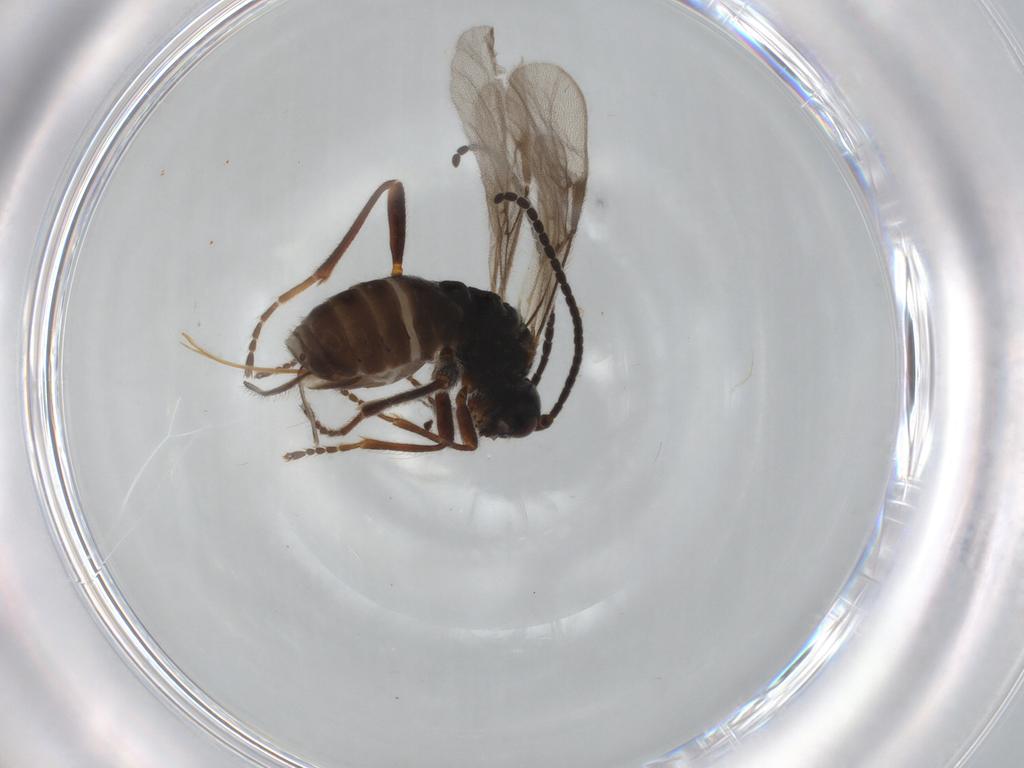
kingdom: Animalia
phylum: Arthropoda
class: Insecta
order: Hymenoptera
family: Braconidae
